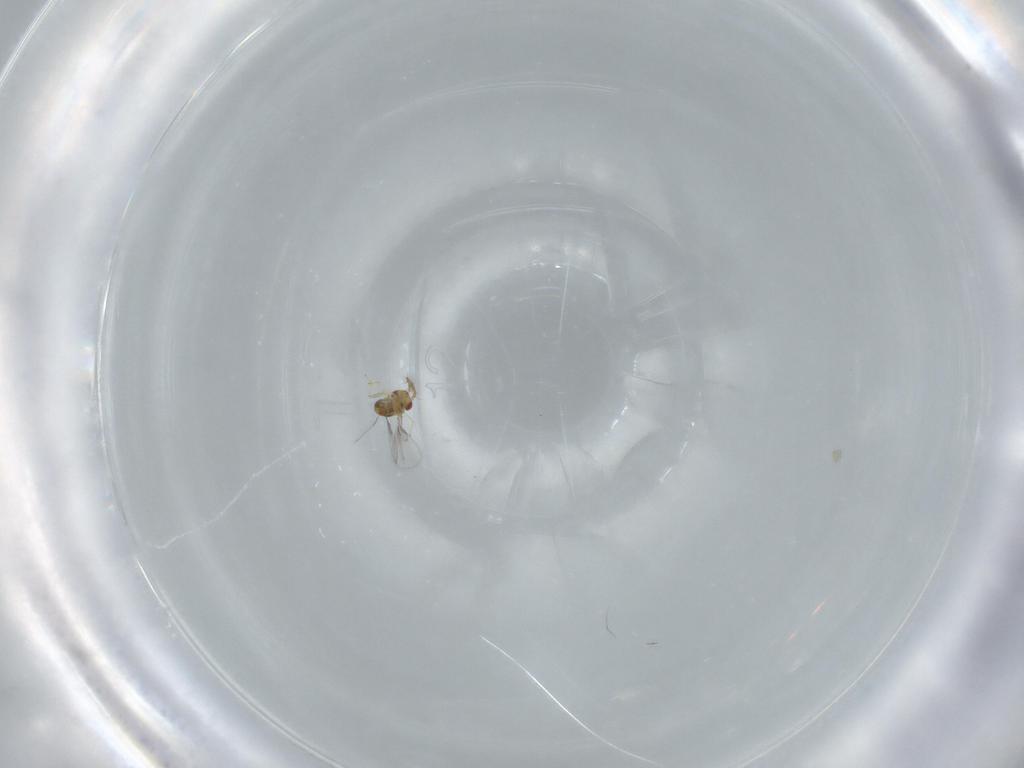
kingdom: Animalia
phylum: Arthropoda
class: Insecta
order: Hymenoptera
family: Trichogrammatidae
